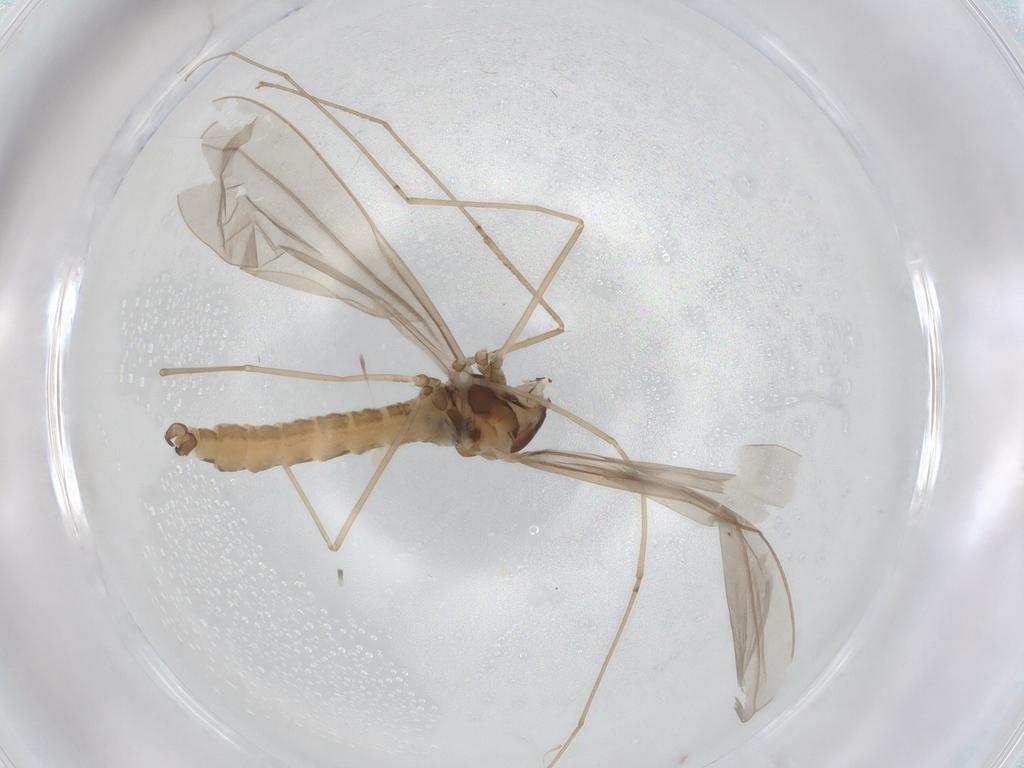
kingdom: Animalia
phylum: Arthropoda
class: Insecta
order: Diptera
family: Cecidomyiidae
